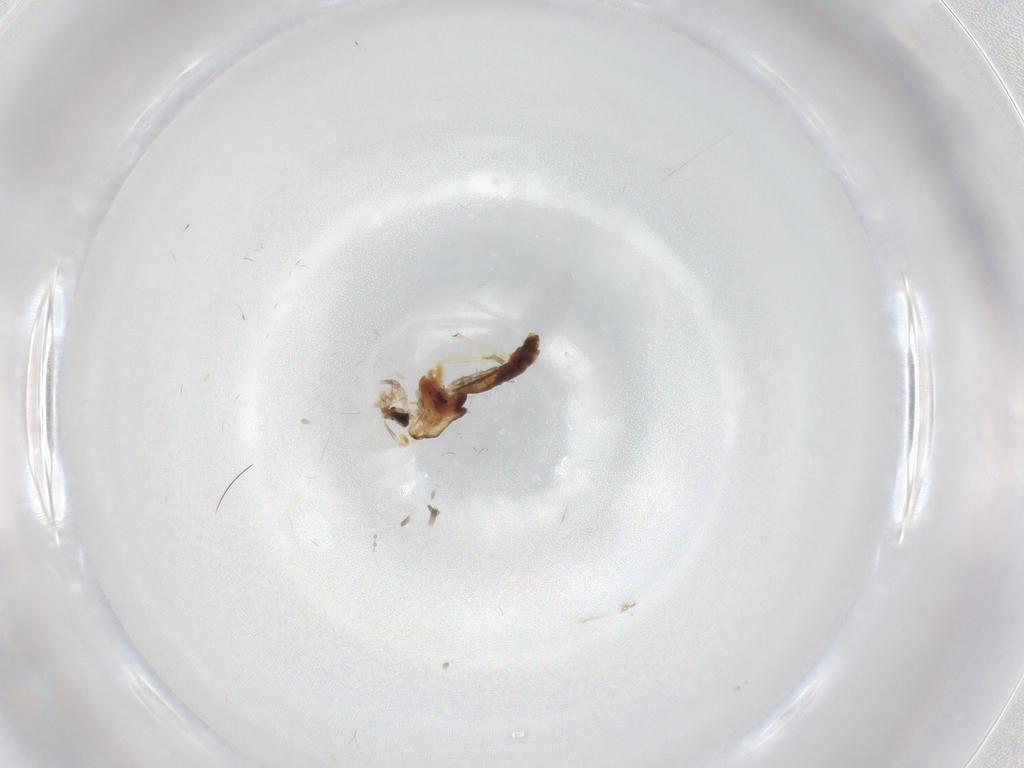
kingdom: Animalia
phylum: Arthropoda
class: Insecta
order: Diptera
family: Chironomidae
